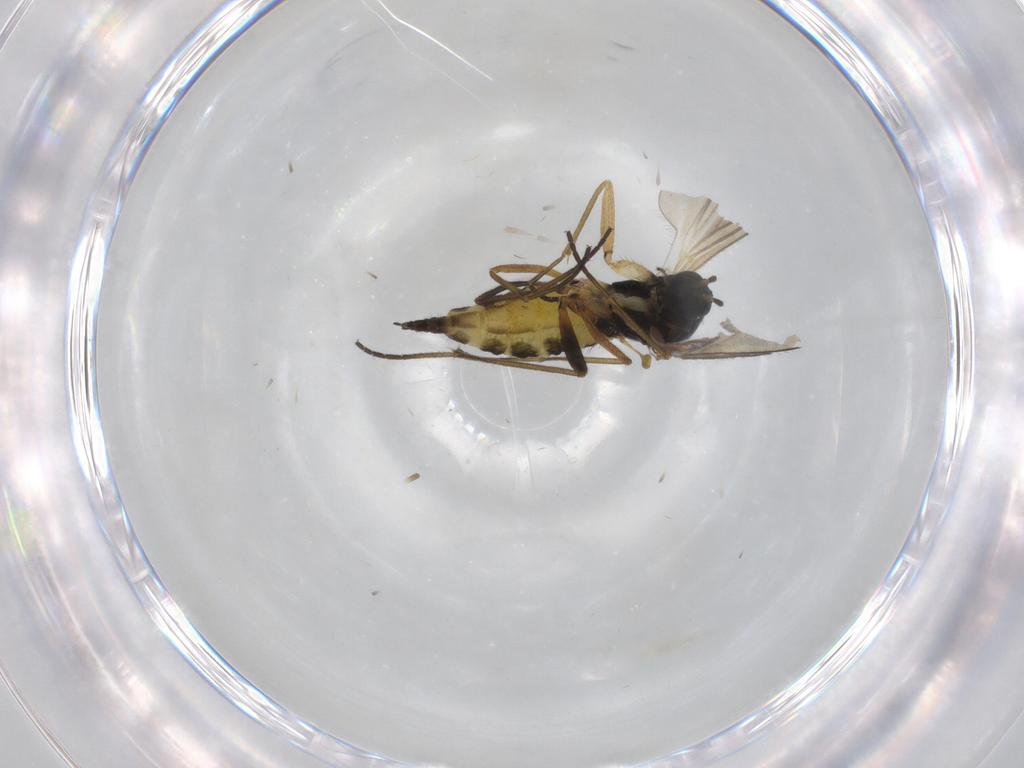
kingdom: Animalia
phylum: Arthropoda
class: Insecta
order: Diptera
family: Sciaridae
